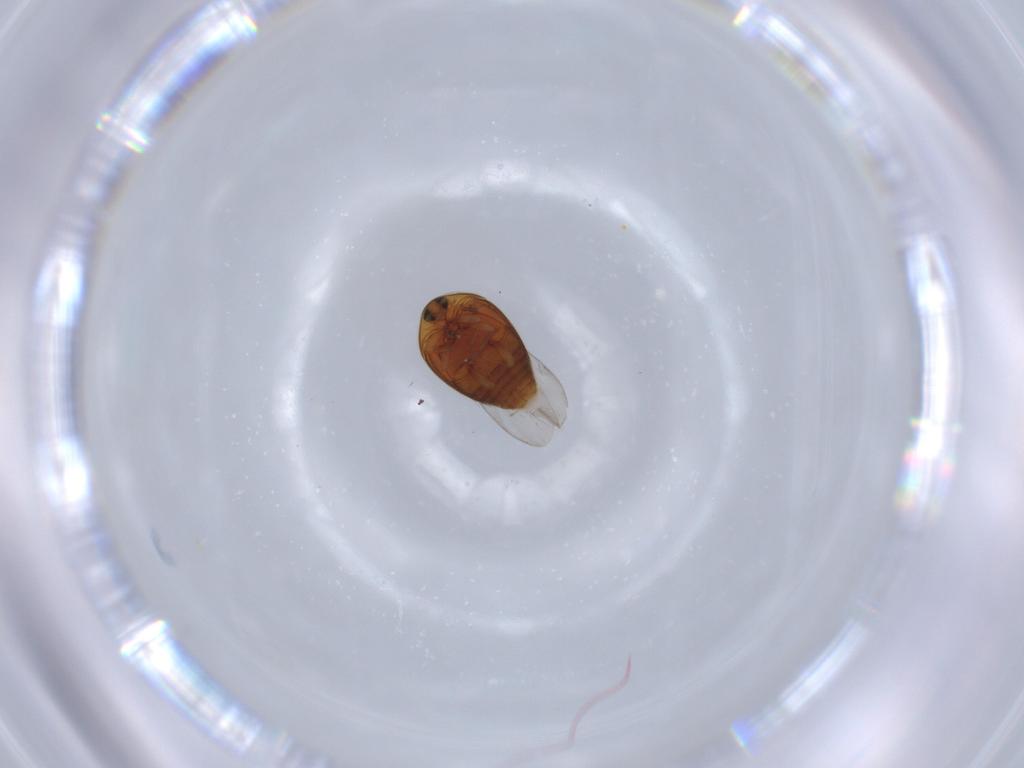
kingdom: Animalia
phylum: Arthropoda
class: Insecta
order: Coleoptera
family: Corylophidae
